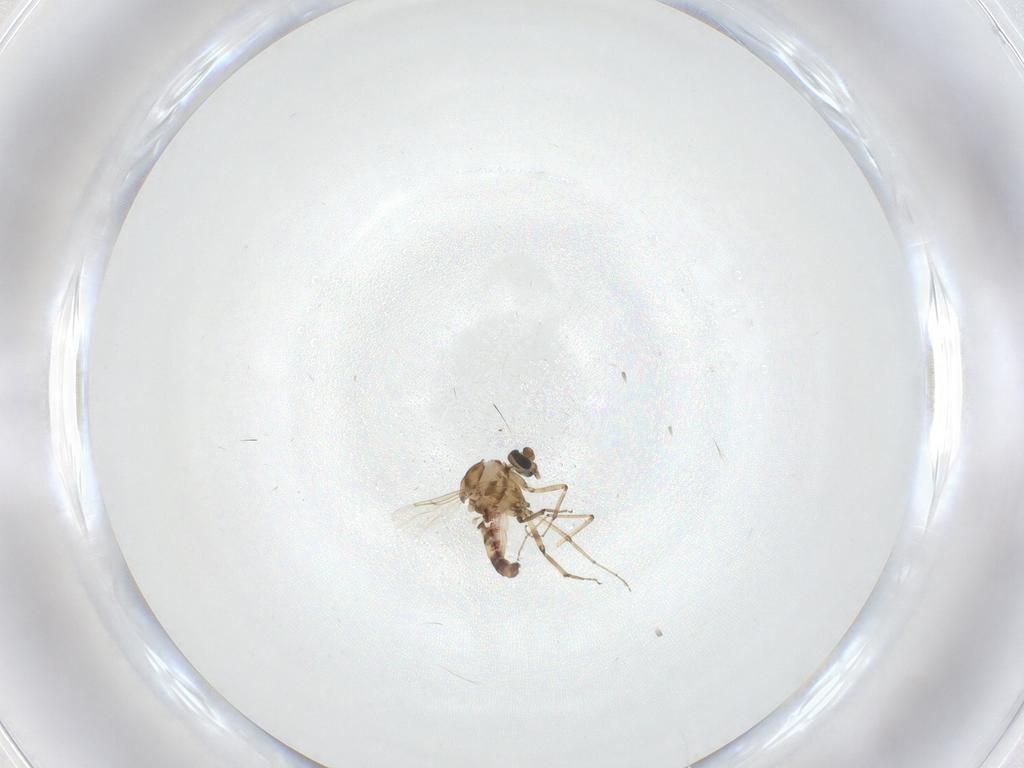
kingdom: Animalia
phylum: Arthropoda
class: Insecta
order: Diptera
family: Ceratopogonidae
